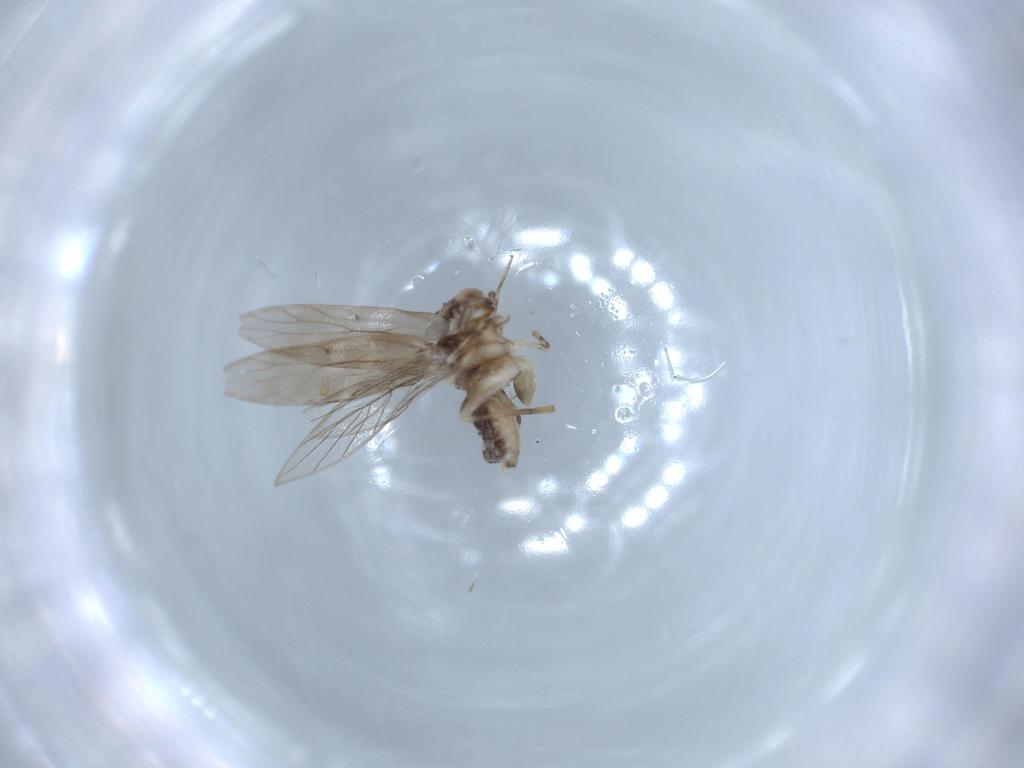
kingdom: Animalia
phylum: Arthropoda
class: Insecta
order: Psocodea
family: Lepidopsocidae
